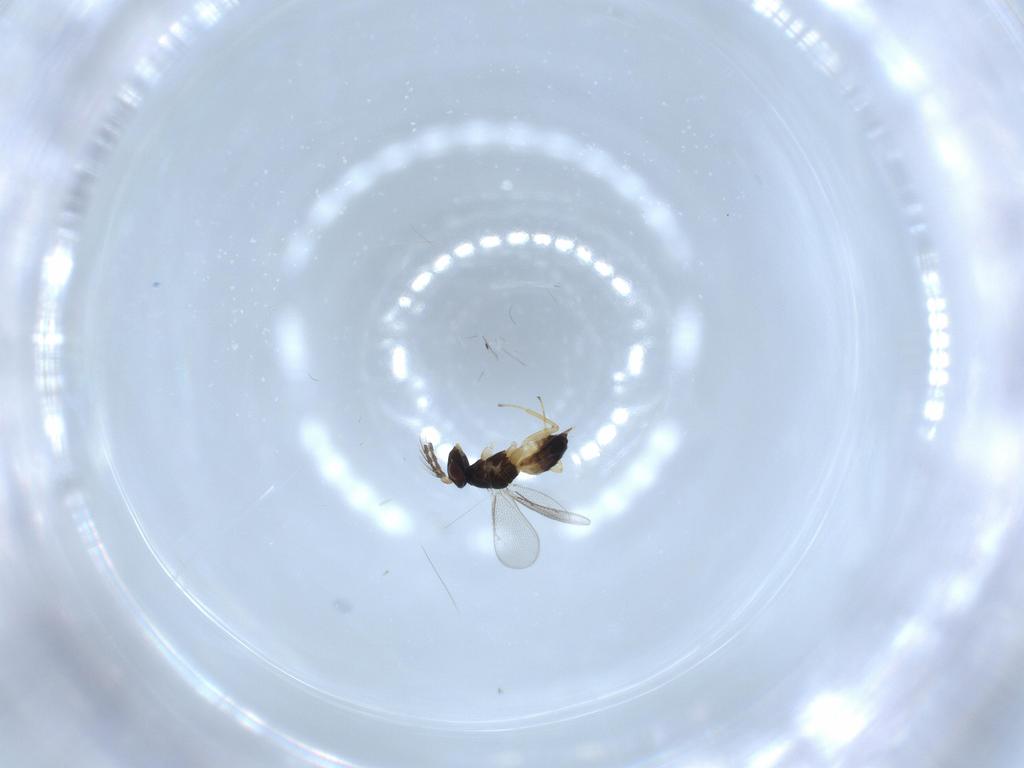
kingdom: Animalia
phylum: Arthropoda
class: Insecta
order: Hymenoptera
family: Eulophidae
